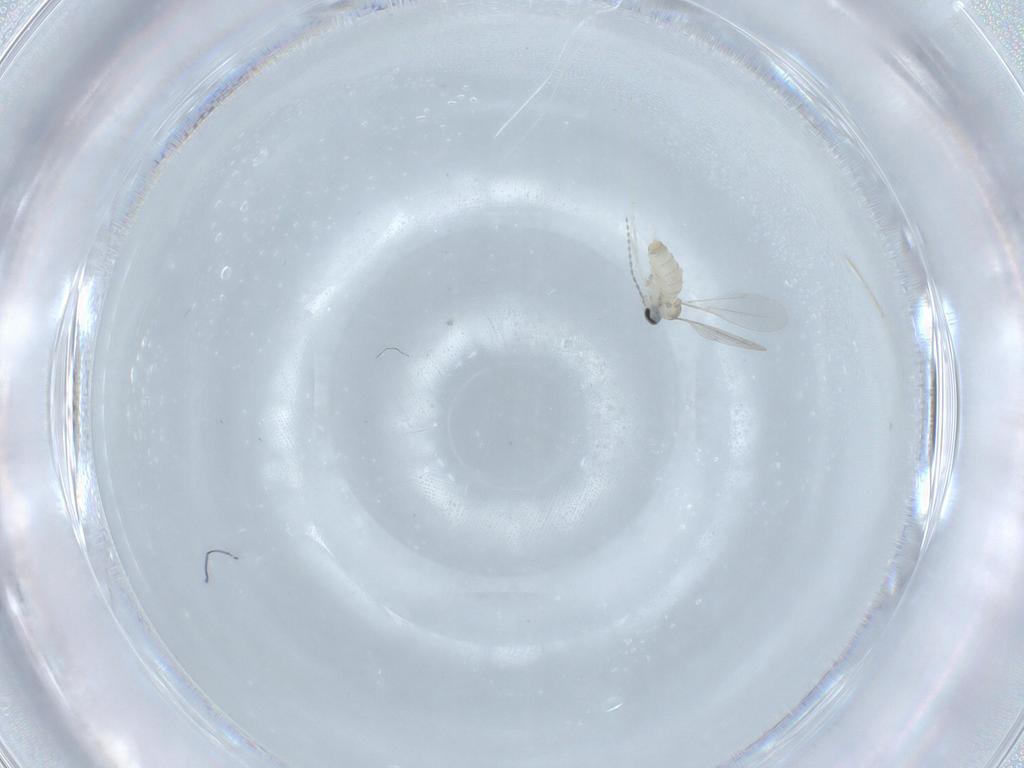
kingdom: Animalia
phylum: Arthropoda
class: Insecta
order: Diptera
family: Cecidomyiidae
